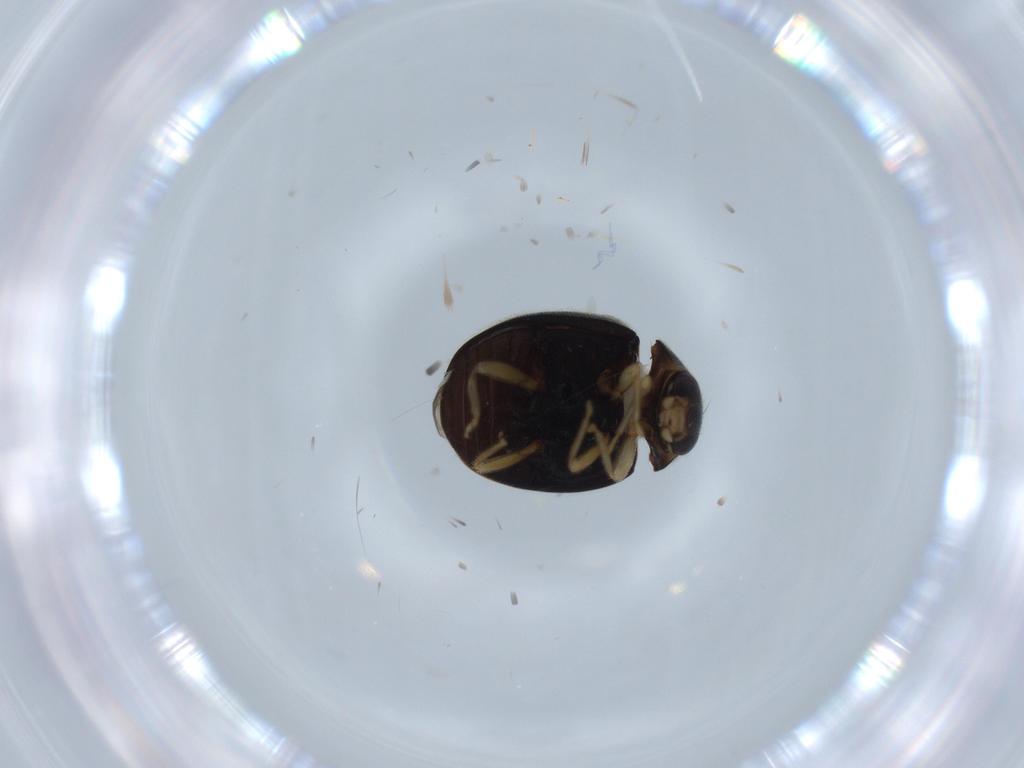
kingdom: Animalia
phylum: Arthropoda
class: Insecta
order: Coleoptera
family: Coccinellidae
